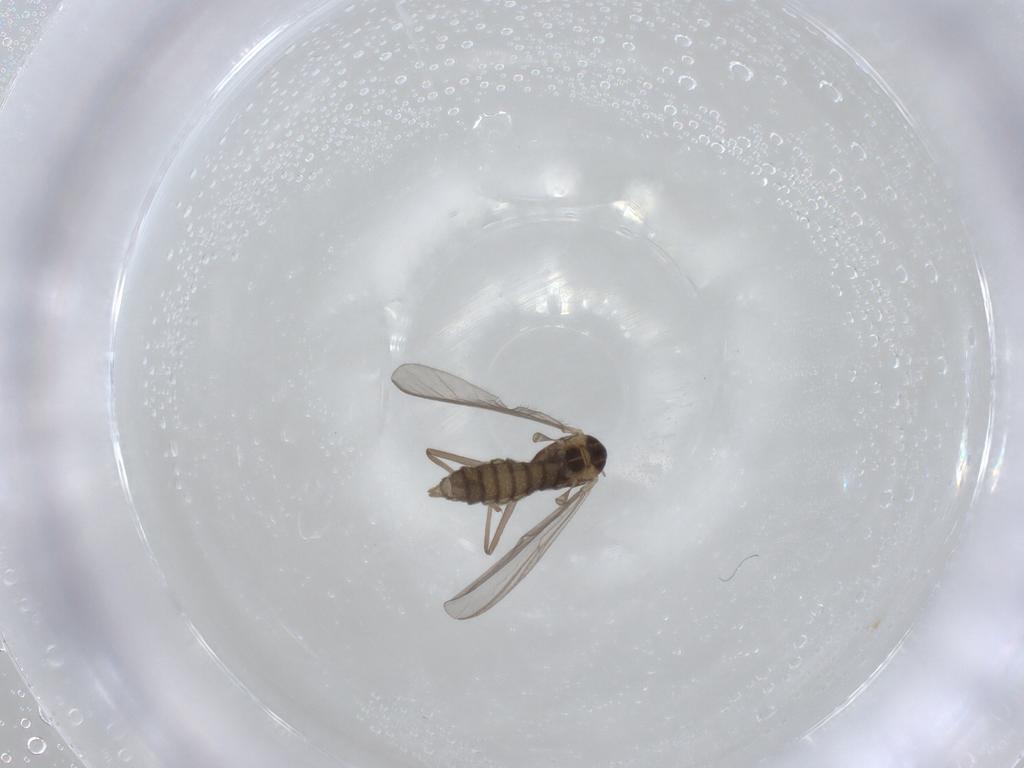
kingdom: Animalia
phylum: Arthropoda
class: Insecta
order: Diptera
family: Chironomidae
